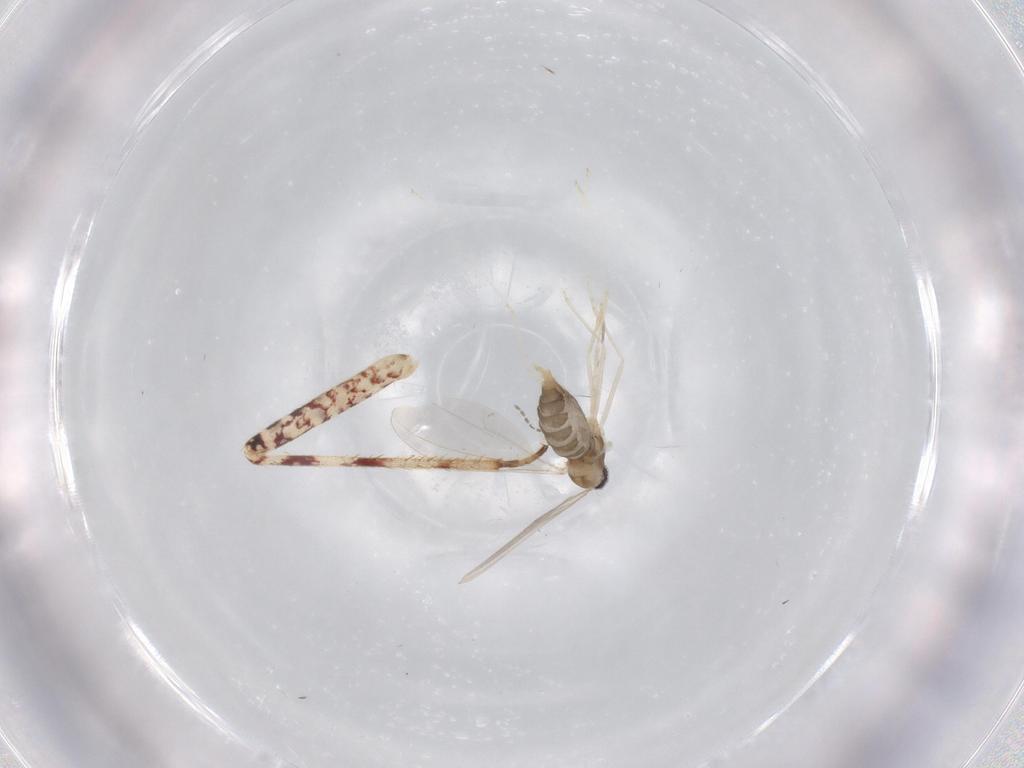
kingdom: Animalia
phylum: Arthropoda
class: Insecta
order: Diptera
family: Cecidomyiidae
